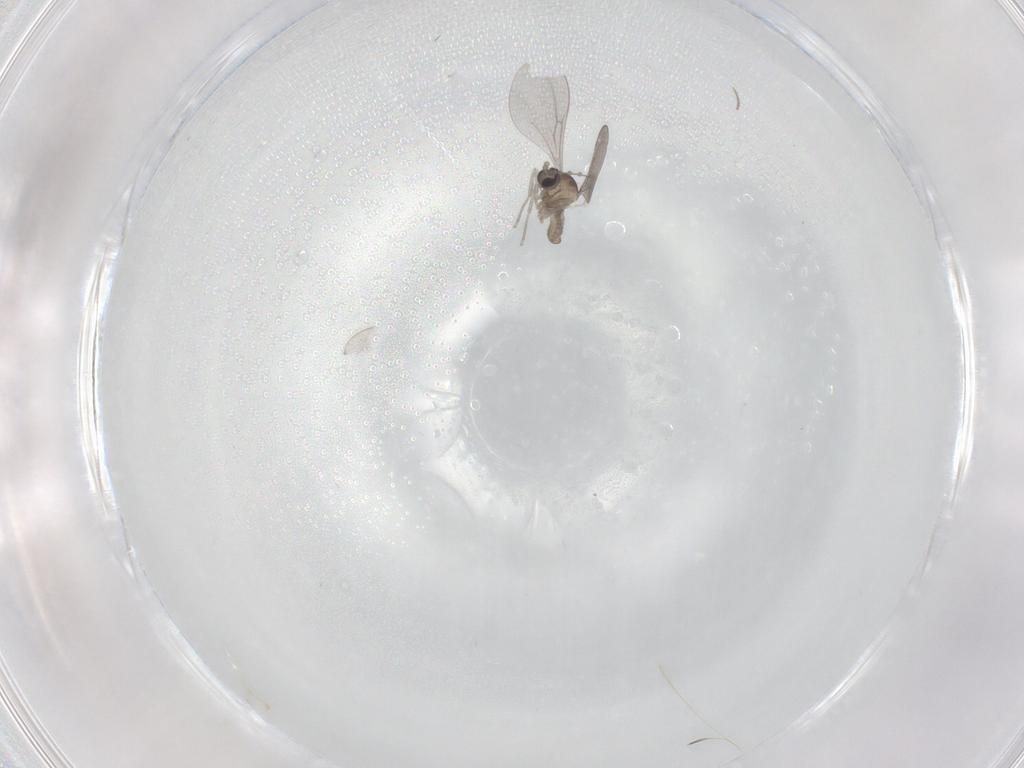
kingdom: Animalia
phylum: Arthropoda
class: Insecta
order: Diptera
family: Cecidomyiidae
